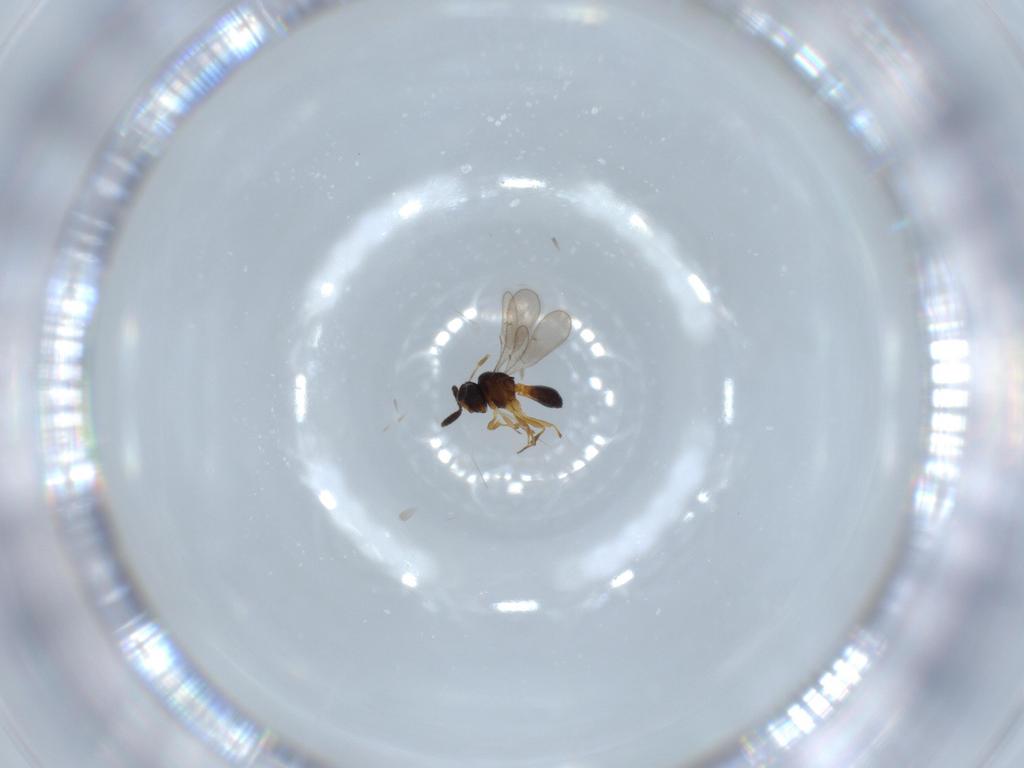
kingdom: Animalia
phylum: Arthropoda
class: Insecta
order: Hymenoptera
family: Scelionidae
